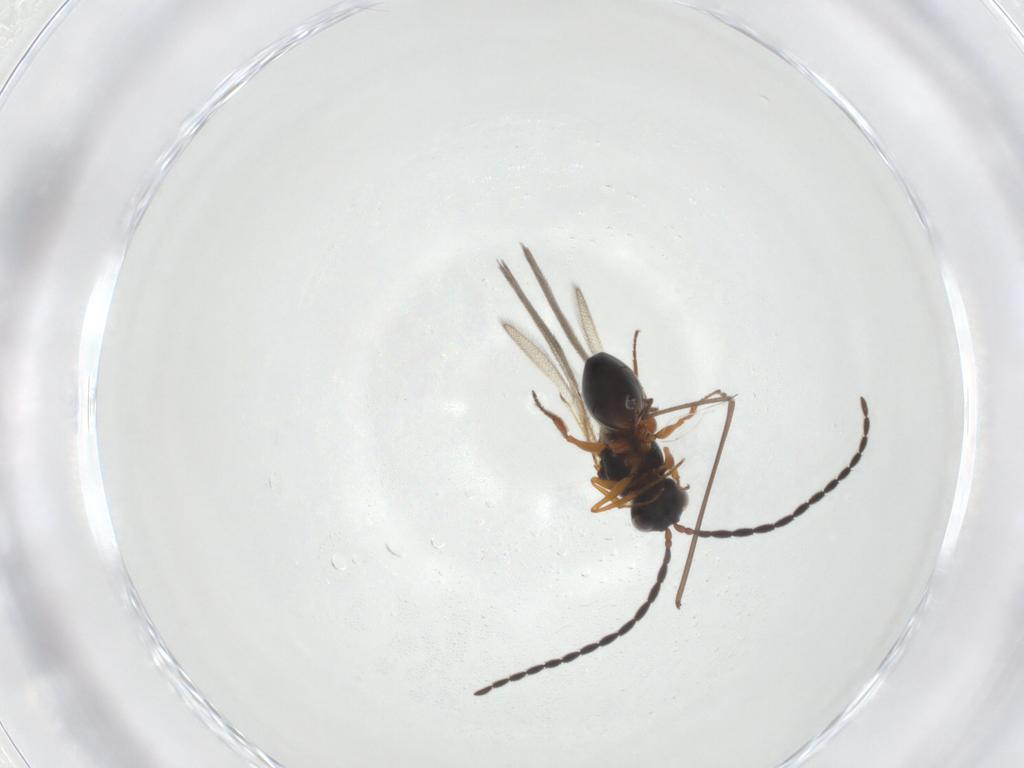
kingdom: Animalia
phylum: Arthropoda
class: Insecta
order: Hymenoptera
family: Figitidae
